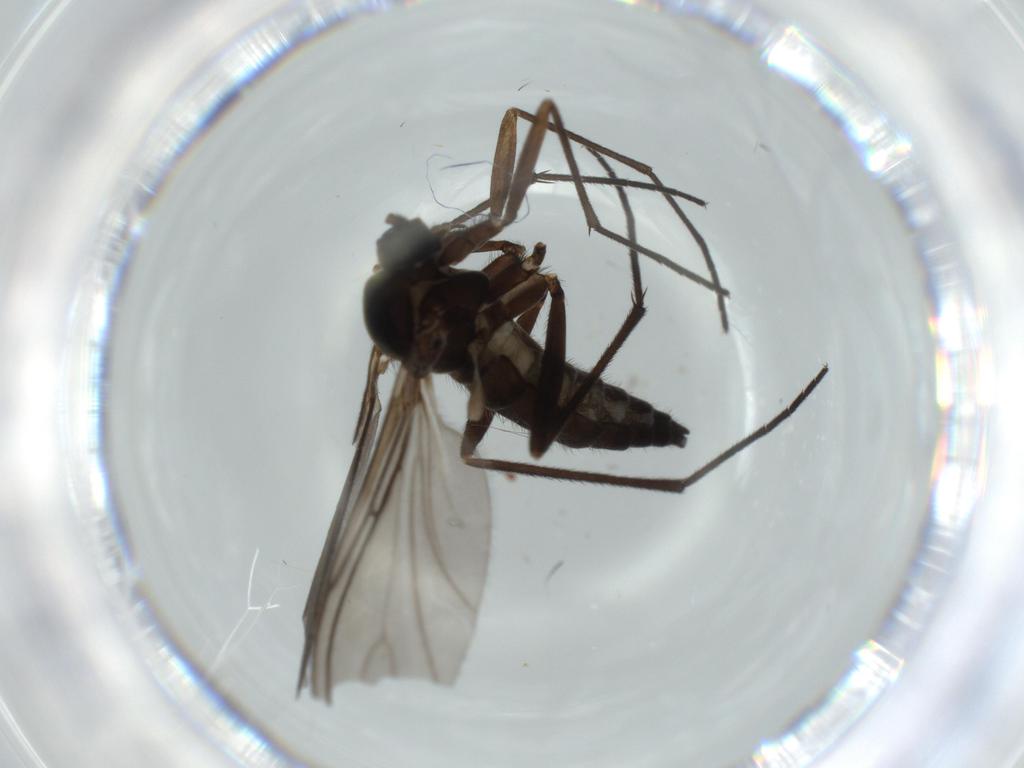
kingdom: Animalia
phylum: Arthropoda
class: Insecta
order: Diptera
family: Sciaridae
